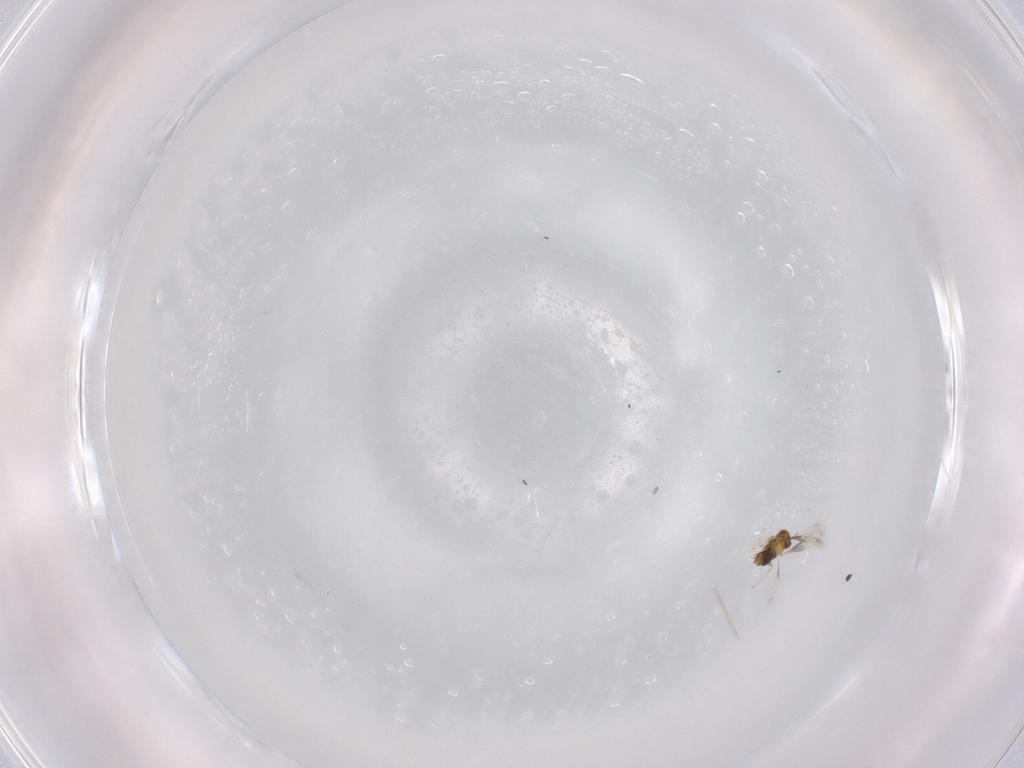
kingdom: Animalia
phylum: Arthropoda
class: Insecta
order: Hymenoptera
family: Aphelinidae
